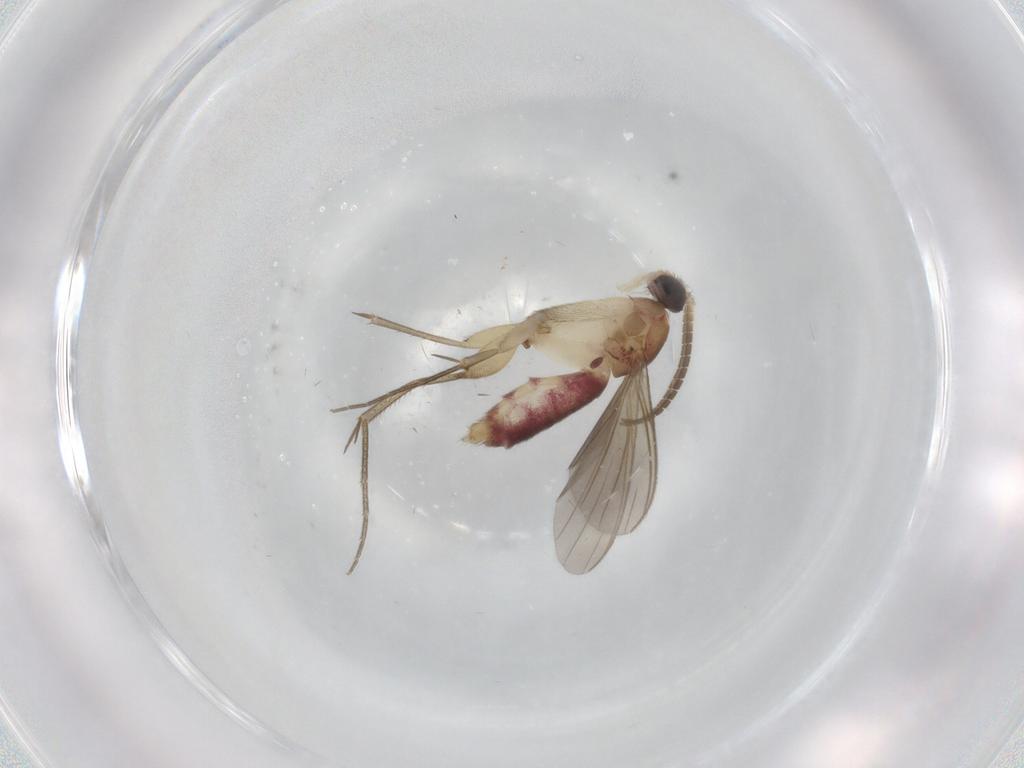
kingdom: Animalia
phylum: Arthropoda
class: Insecta
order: Diptera
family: Mycetophilidae
